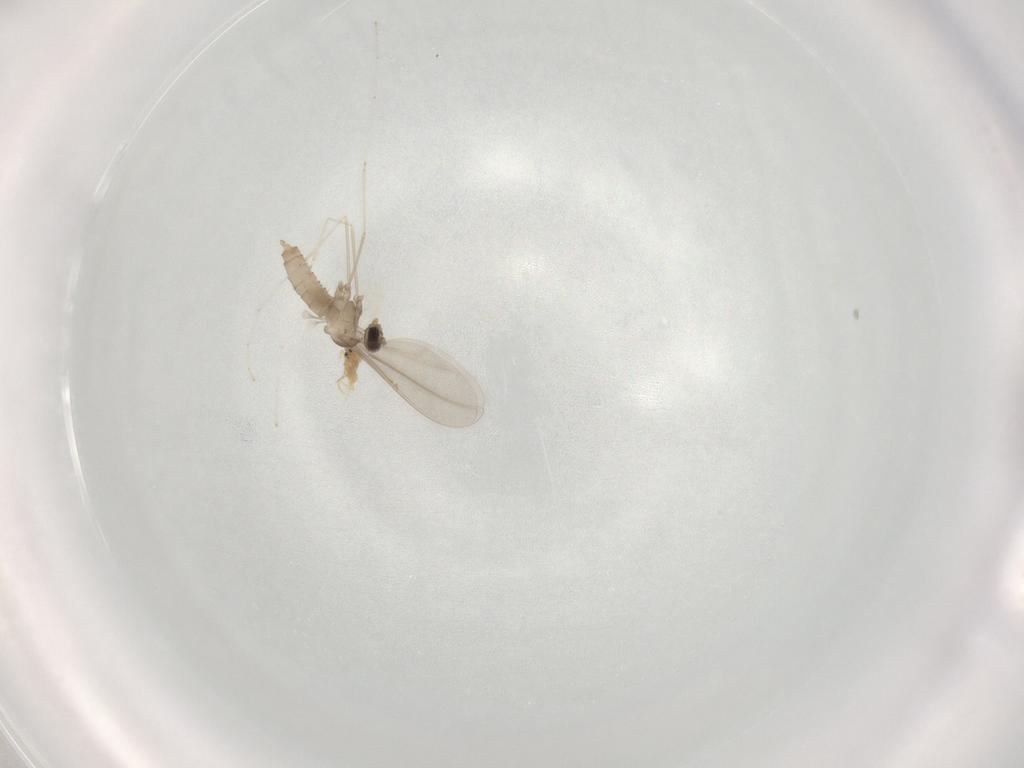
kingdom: Animalia
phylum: Arthropoda
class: Insecta
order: Diptera
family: Cecidomyiidae
